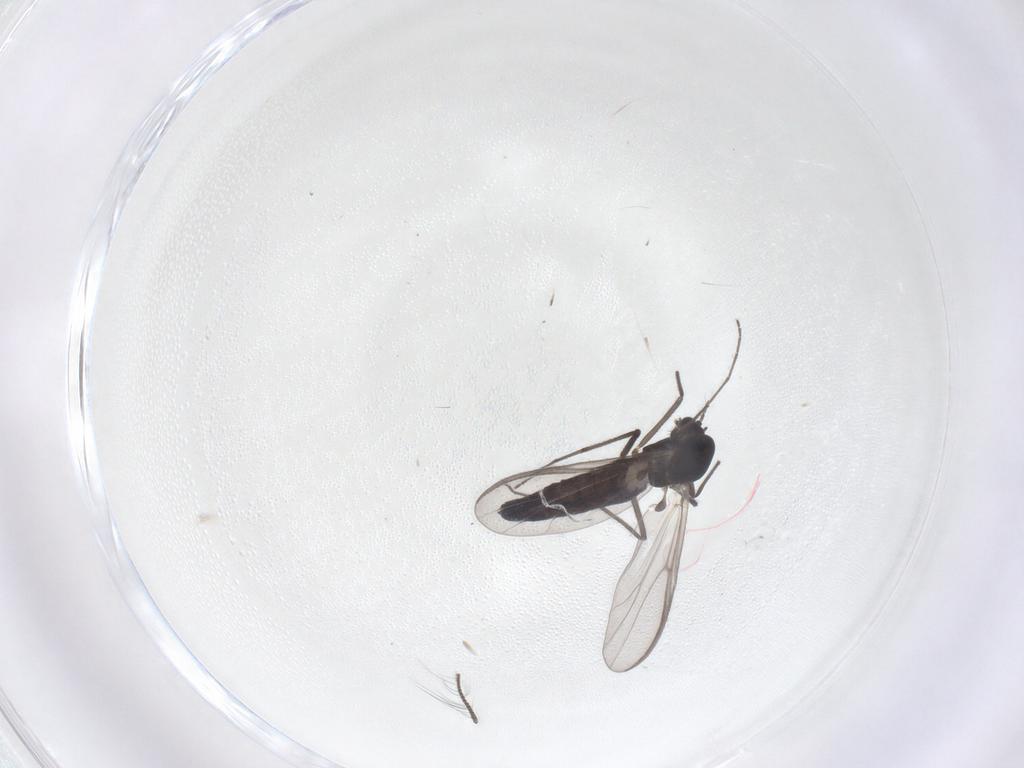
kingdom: Animalia
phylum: Arthropoda
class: Insecta
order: Diptera
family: Chironomidae
